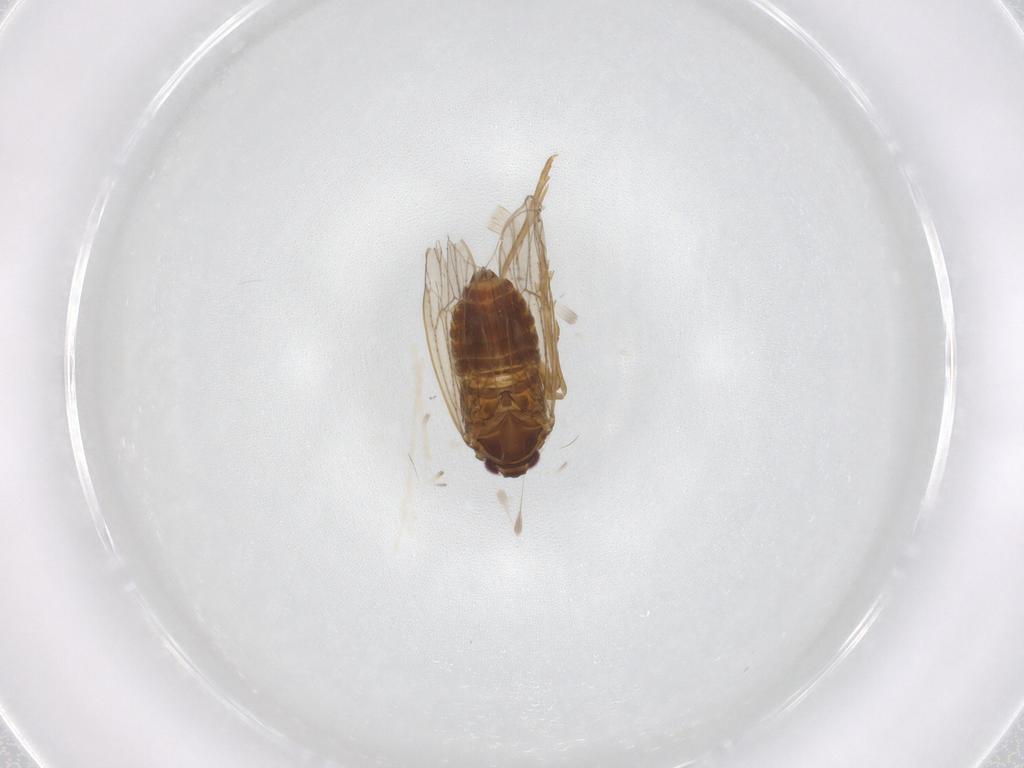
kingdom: Animalia
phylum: Arthropoda
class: Insecta
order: Hemiptera
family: Delphacidae
